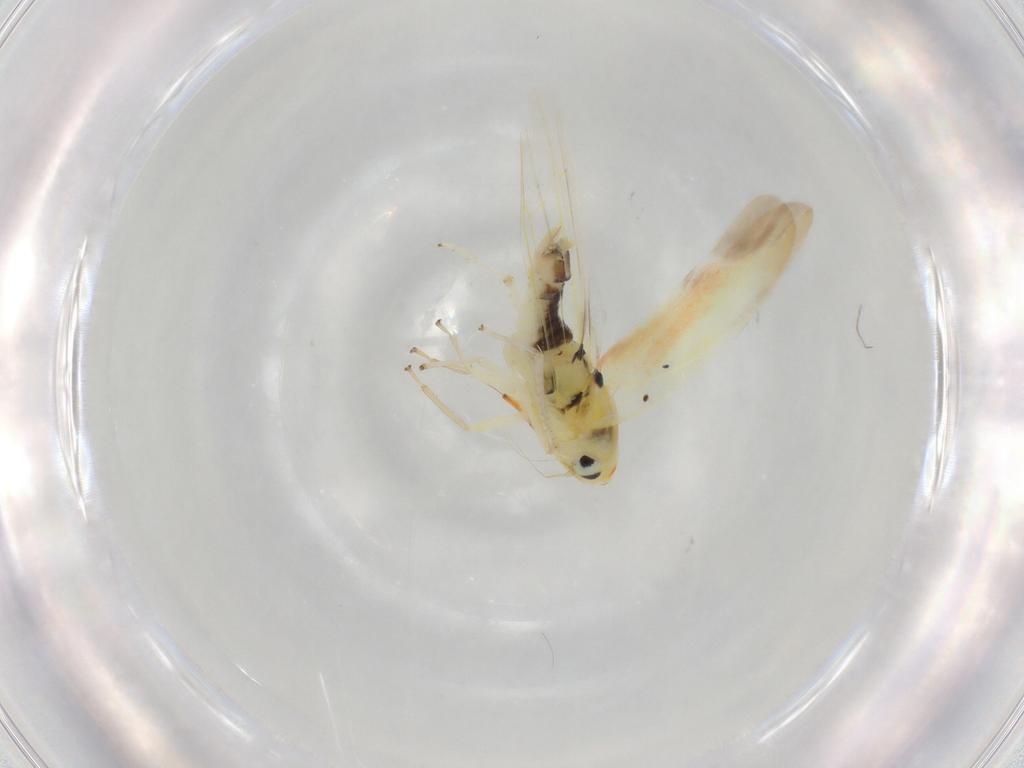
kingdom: Animalia
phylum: Arthropoda
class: Insecta
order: Hemiptera
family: Cicadellidae
